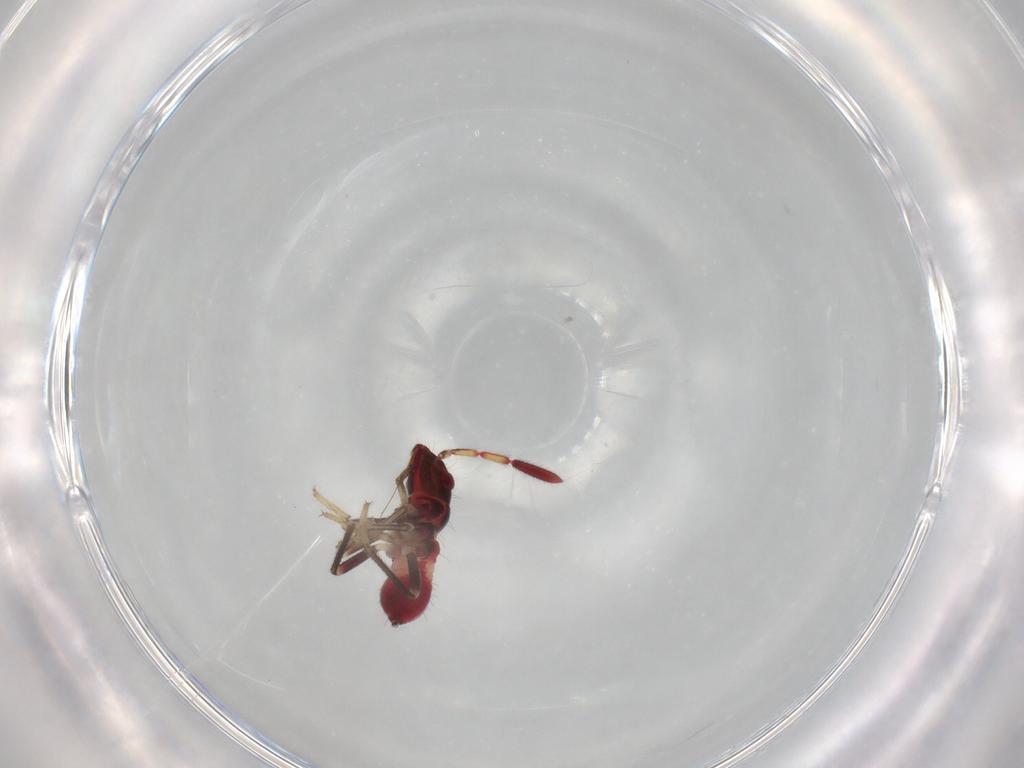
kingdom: Animalia
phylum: Arthropoda
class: Insecta
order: Hemiptera
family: Rhyparochromidae
